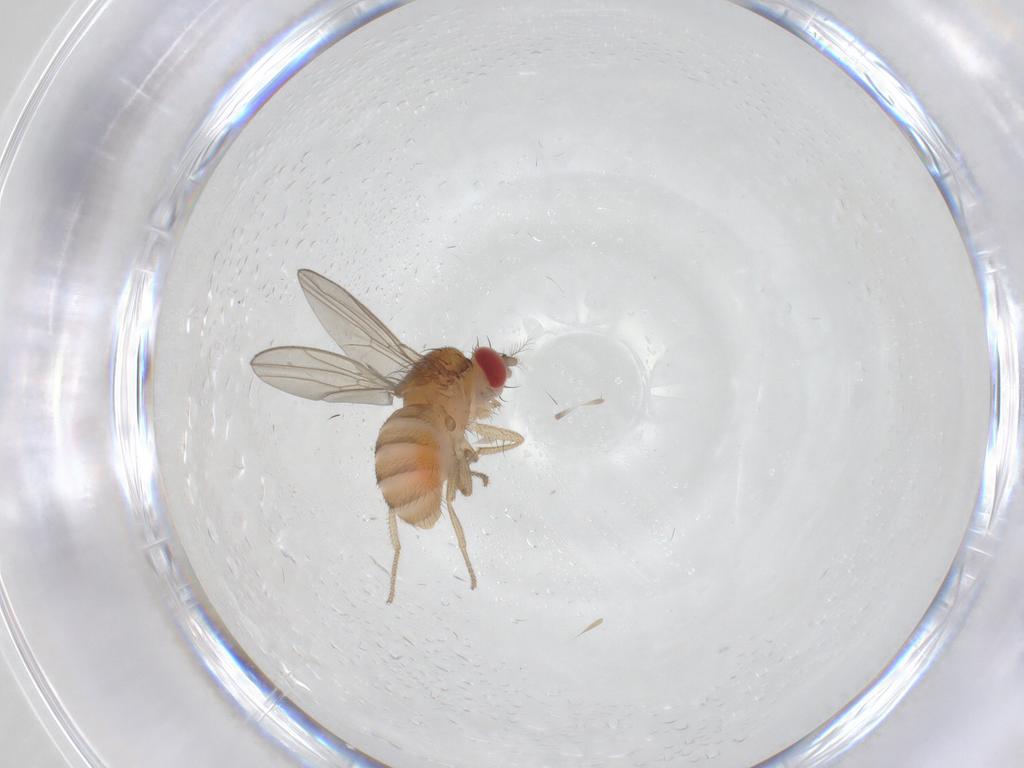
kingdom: Animalia
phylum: Arthropoda
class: Insecta
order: Diptera
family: Drosophilidae
